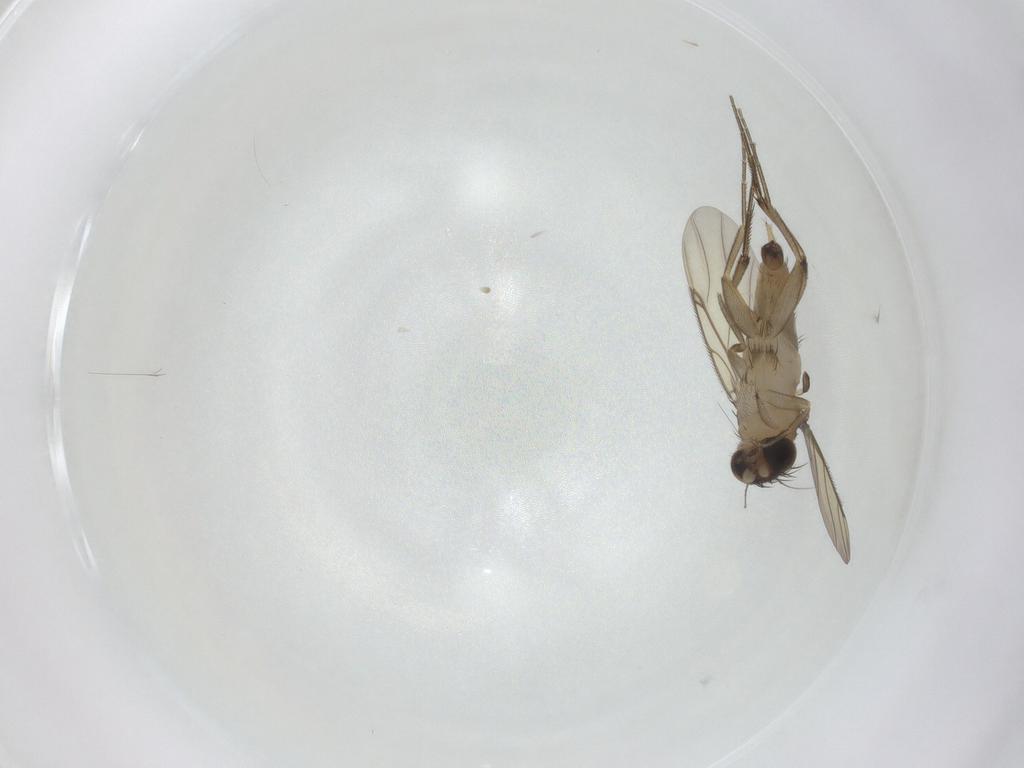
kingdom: Animalia
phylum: Arthropoda
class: Insecta
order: Diptera
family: Phoridae
